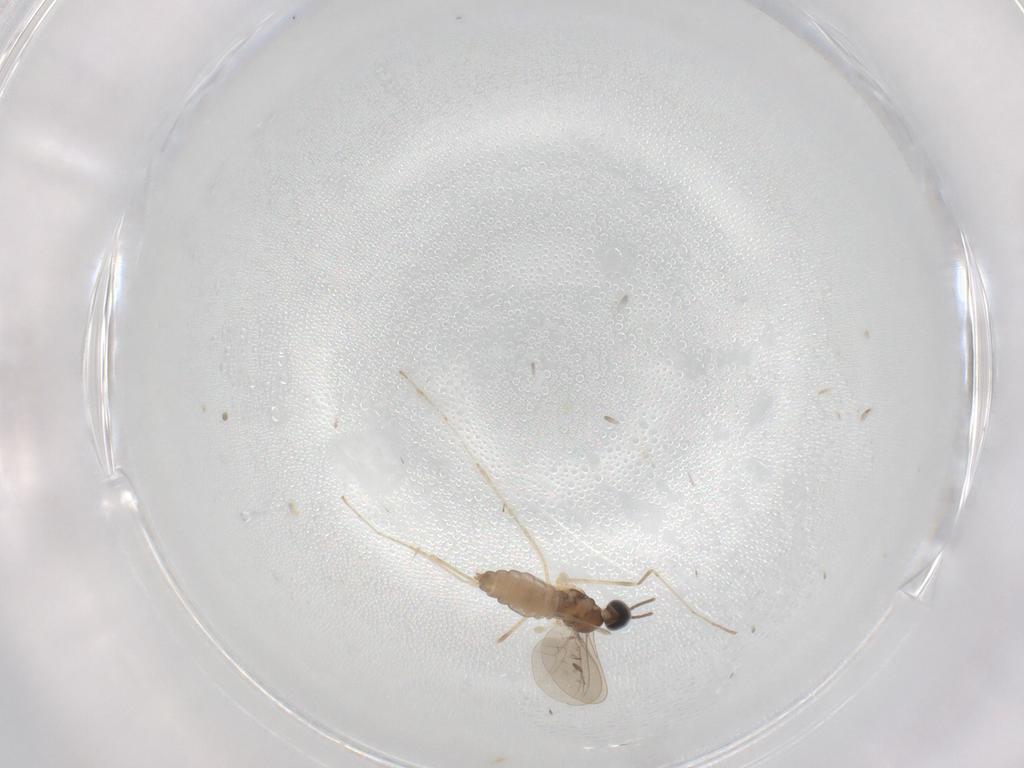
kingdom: Animalia
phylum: Arthropoda
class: Insecta
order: Diptera
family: Cecidomyiidae
